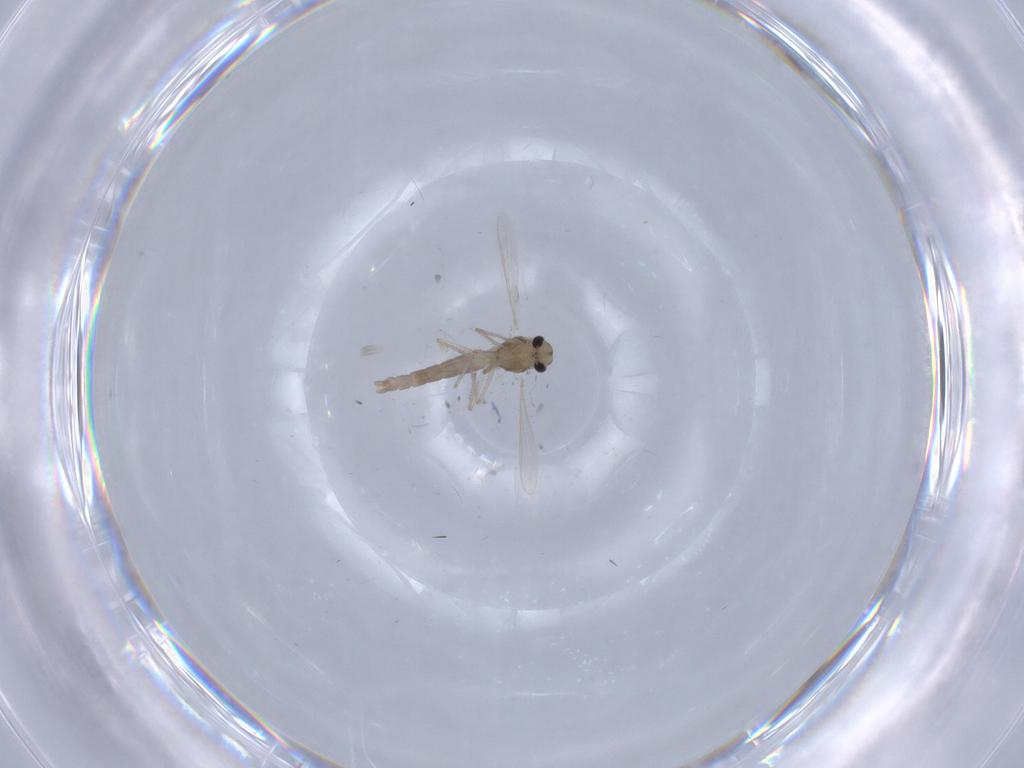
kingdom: Animalia
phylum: Arthropoda
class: Insecta
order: Diptera
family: Chironomidae
